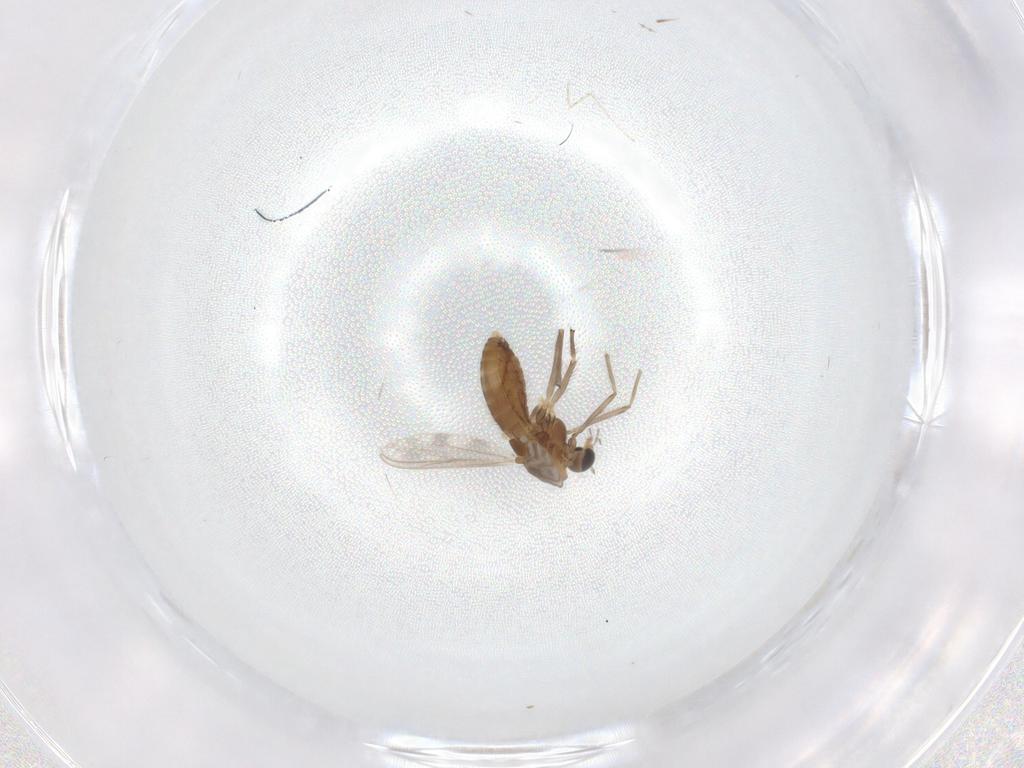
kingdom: Animalia
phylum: Arthropoda
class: Insecta
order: Diptera
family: Chironomidae
